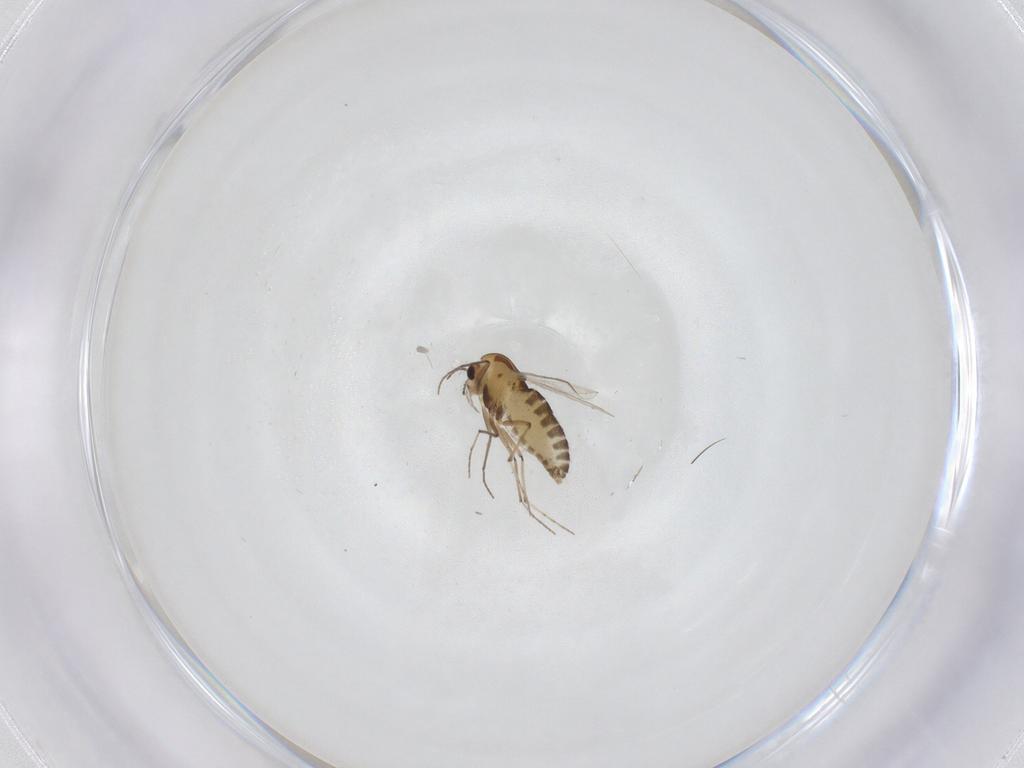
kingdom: Animalia
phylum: Arthropoda
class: Insecta
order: Diptera
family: Chironomidae
